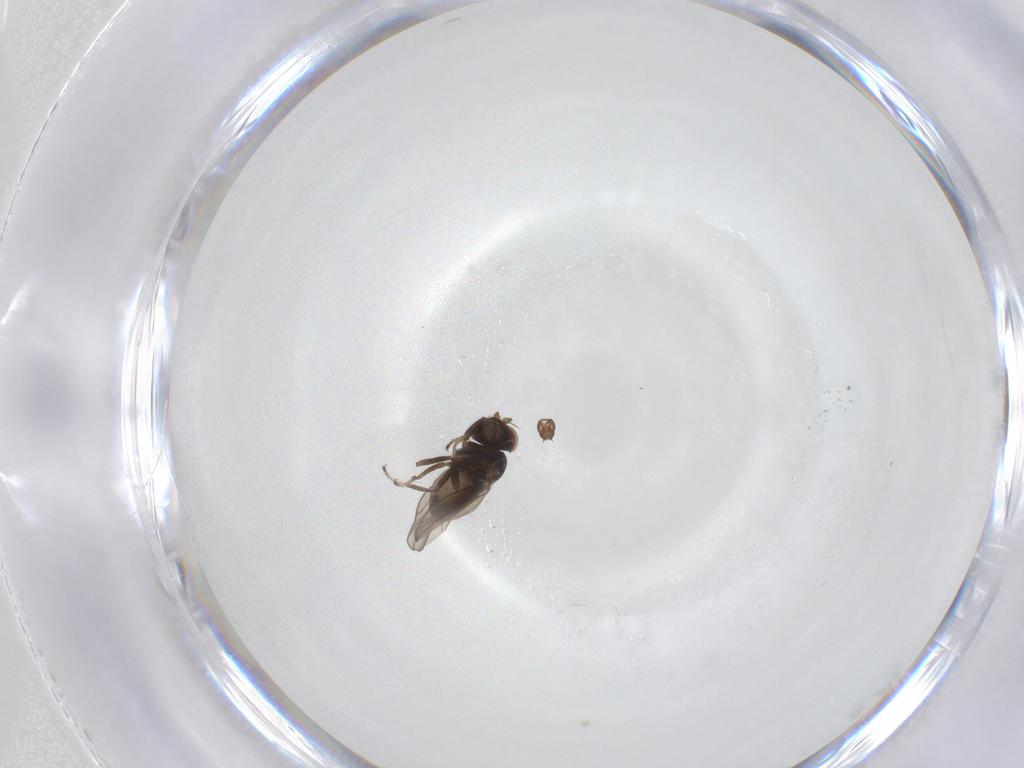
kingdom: Animalia
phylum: Arthropoda
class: Insecta
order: Diptera
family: Ephydridae
